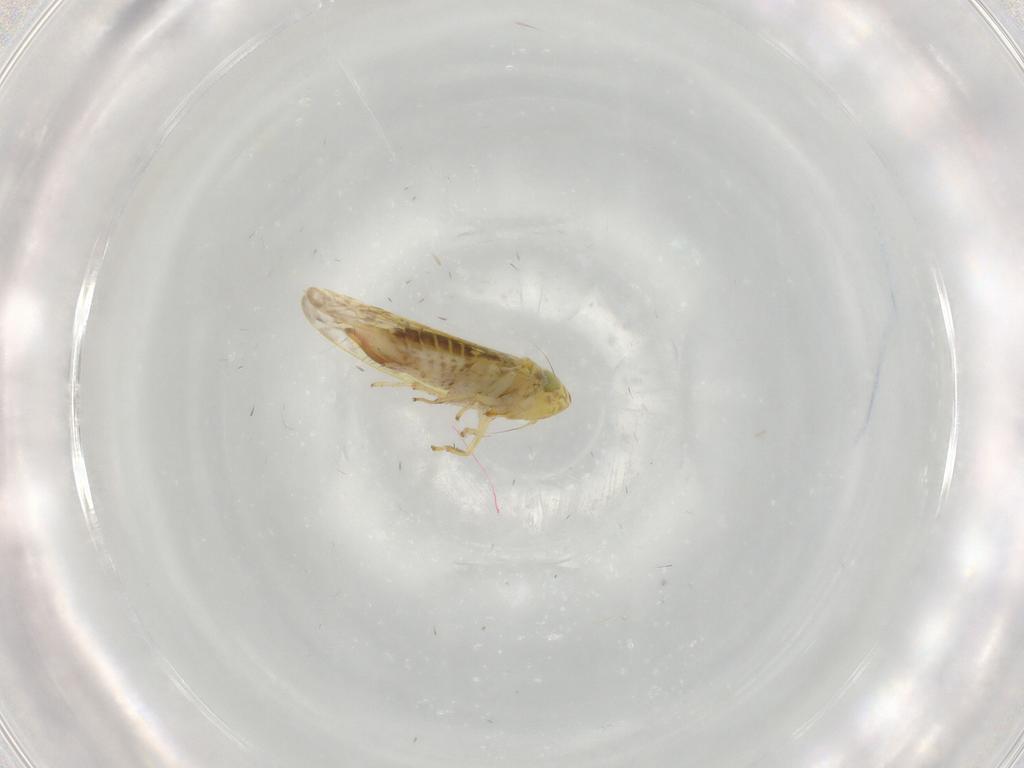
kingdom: Animalia
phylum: Arthropoda
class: Insecta
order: Hemiptera
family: Cicadellidae
